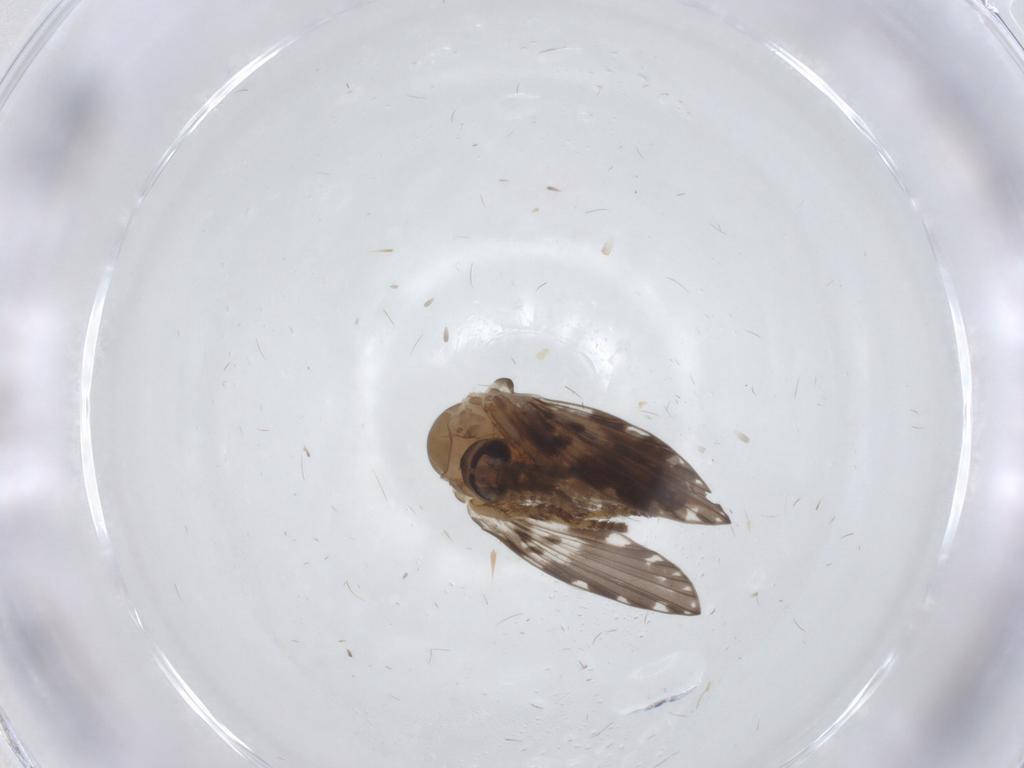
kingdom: Animalia
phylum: Arthropoda
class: Insecta
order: Diptera
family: Psychodidae
